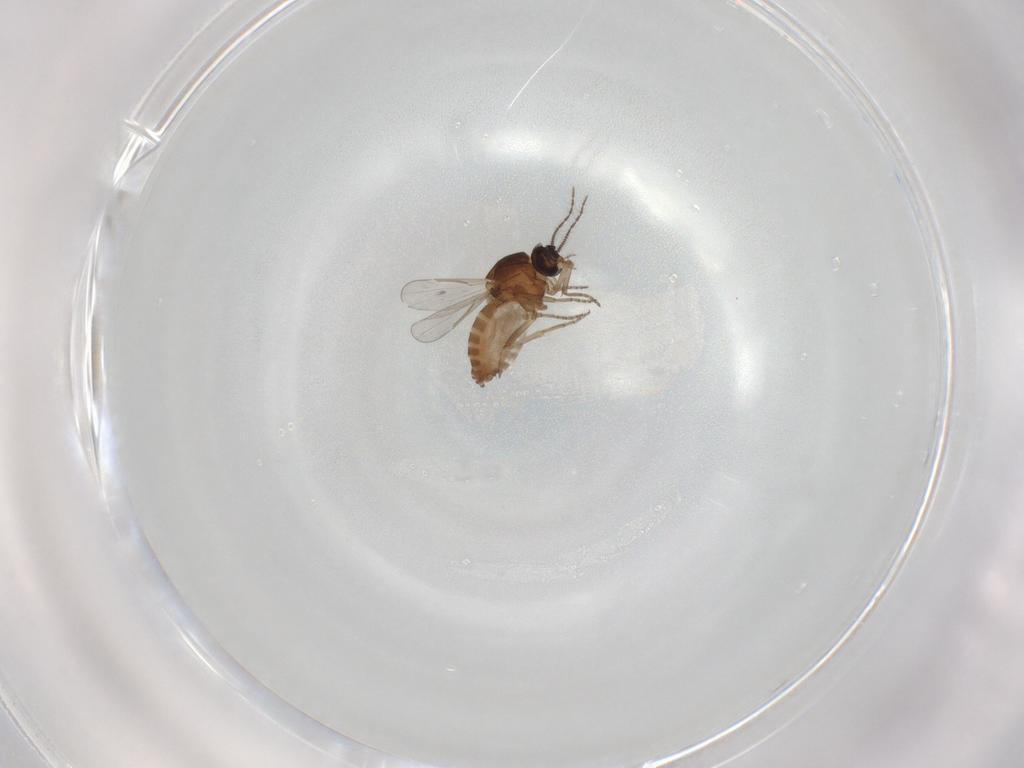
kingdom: Animalia
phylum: Arthropoda
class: Insecta
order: Diptera
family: Ceratopogonidae
